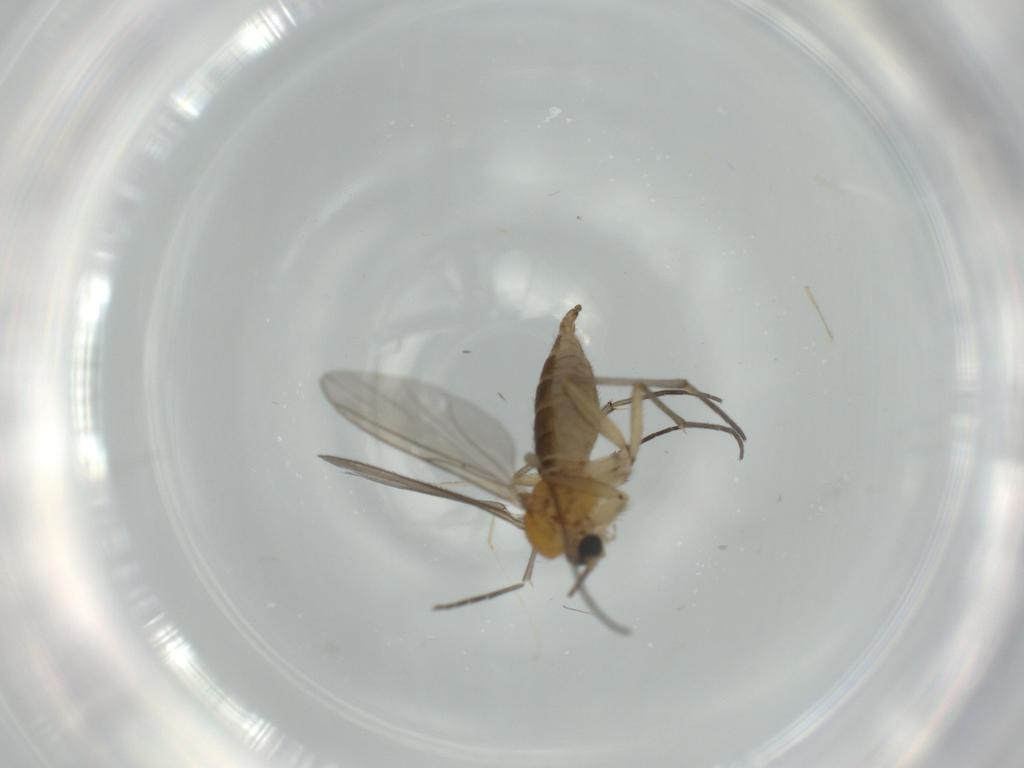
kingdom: Animalia
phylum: Arthropoda
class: Insecta
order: Diptera
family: Sciaridae
